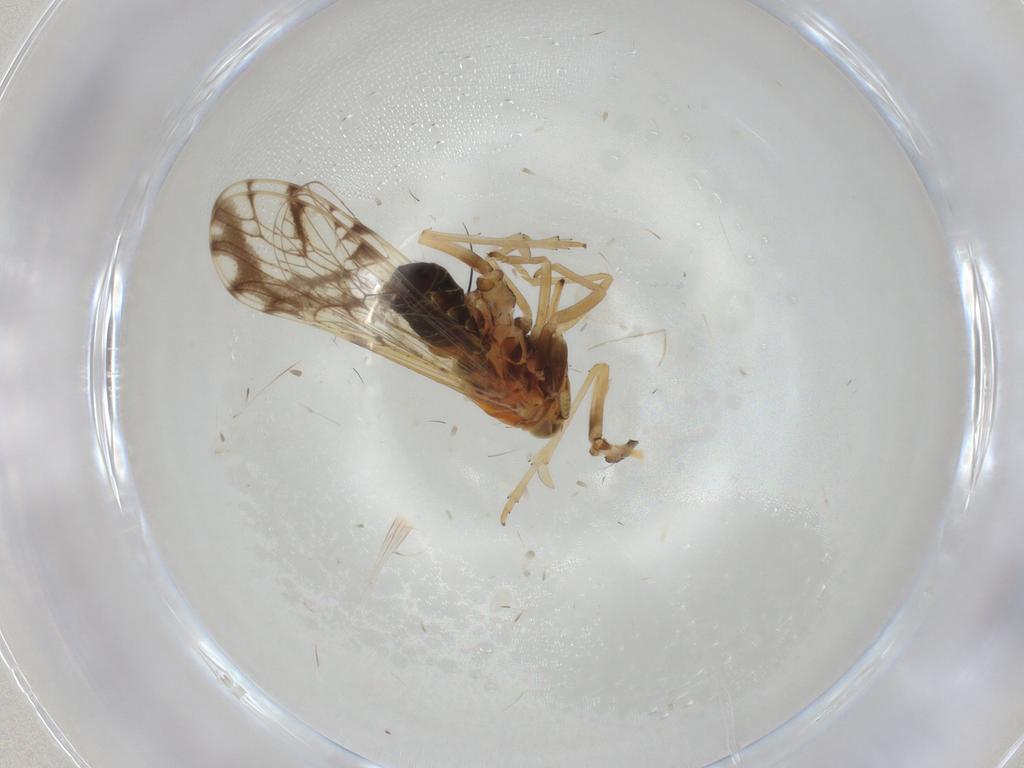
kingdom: Animalia
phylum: Arthropoda
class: Insecta
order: Hemiptera
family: Delphacidae
